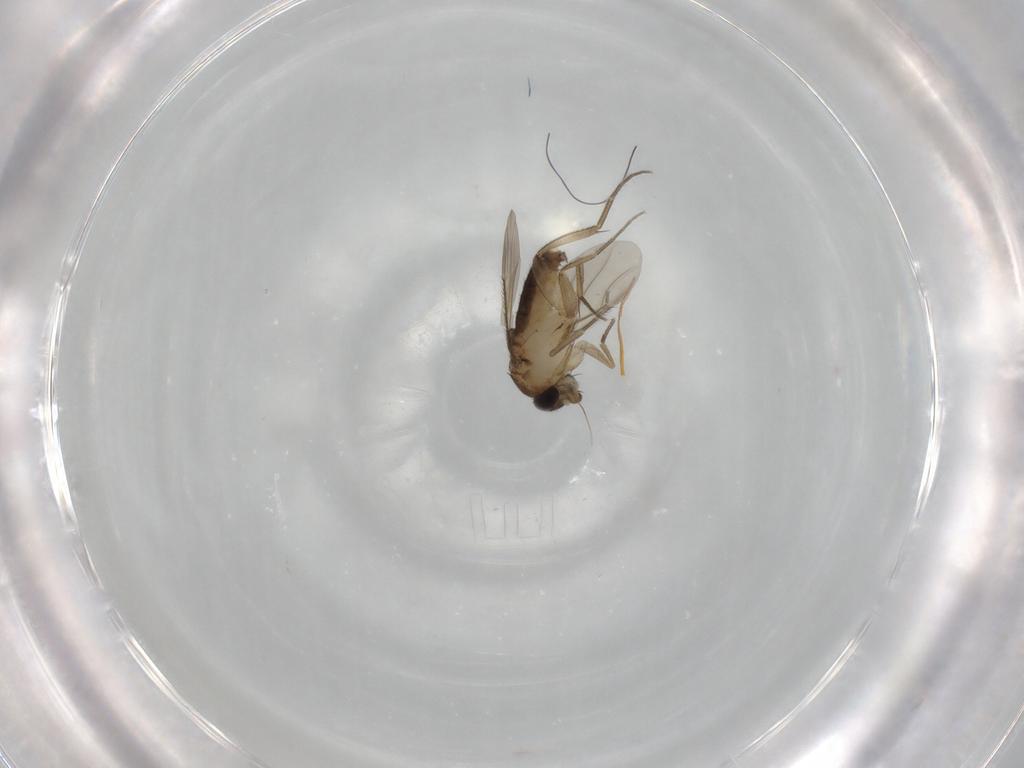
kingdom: Animalia
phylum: Arthropoda
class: Insecta
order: Diptera
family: Phoridae
